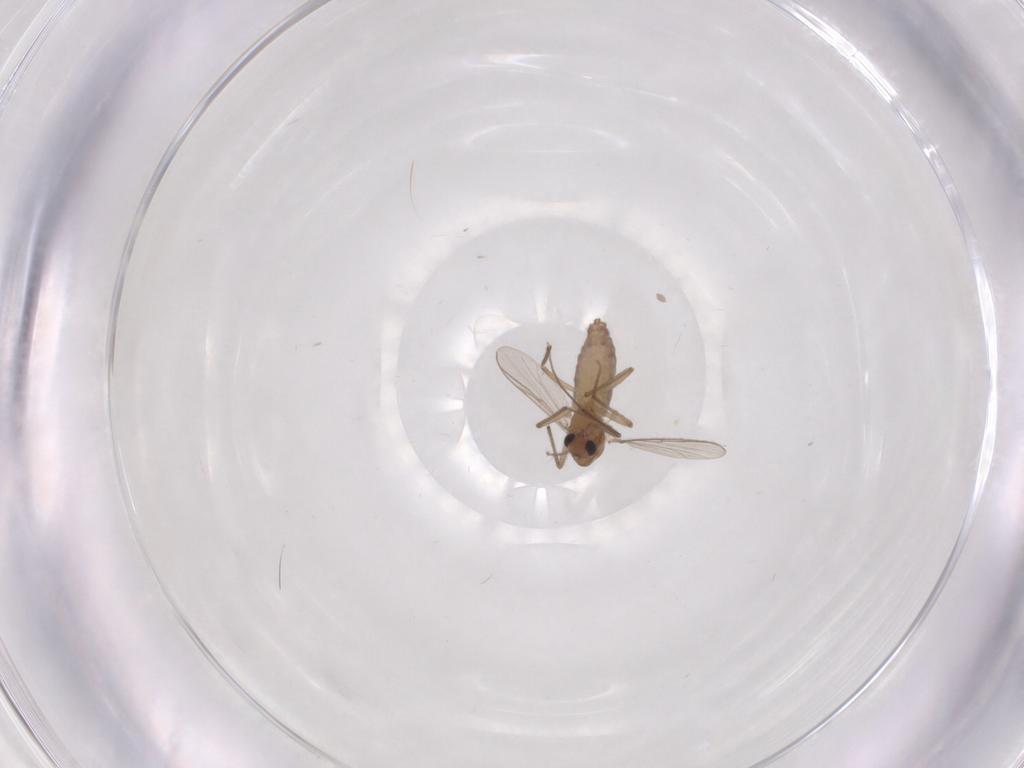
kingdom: Animalia
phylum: Arthropoda
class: Insecta
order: Diptera
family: Chironomidae
